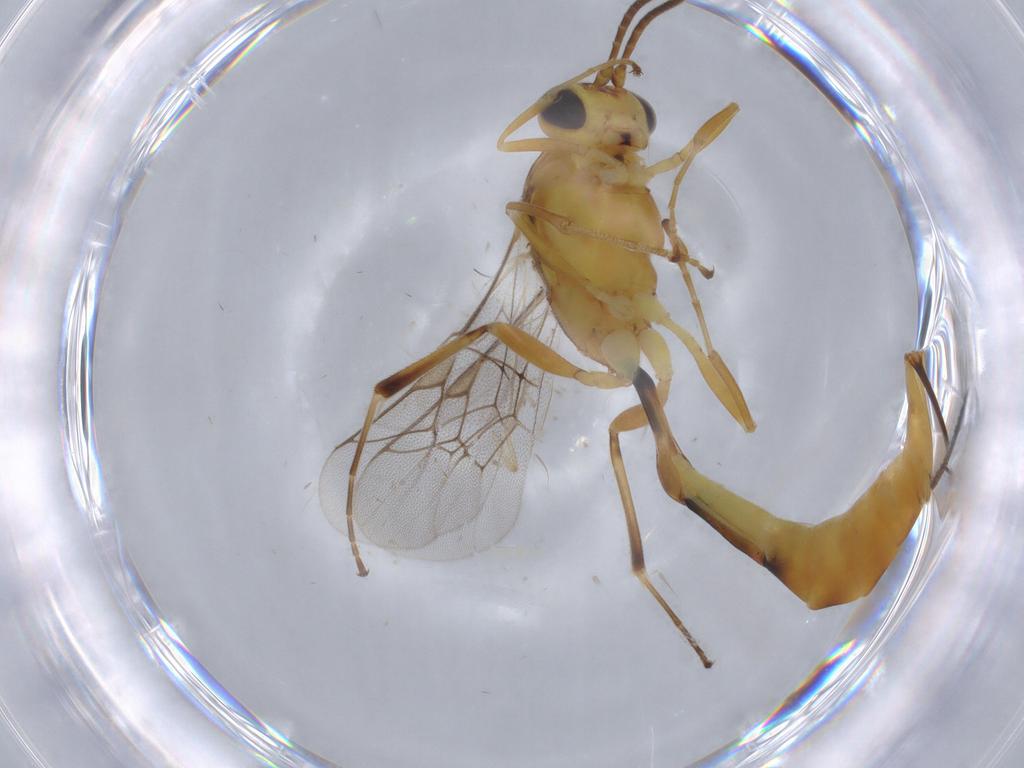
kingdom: Animalia
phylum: Arthropoda
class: Insecta
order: Hymenoptera
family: Ichneumonidae
